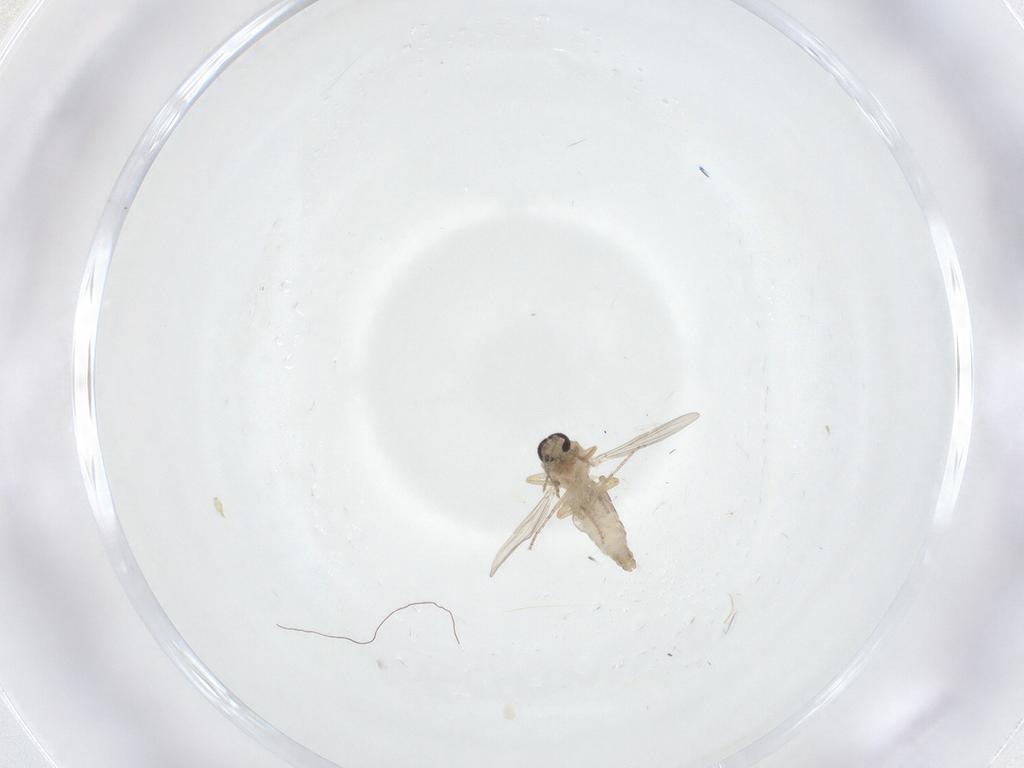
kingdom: Animalia
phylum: Arthropoda
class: Insecta
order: Diptera
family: Ceratopogonidae
